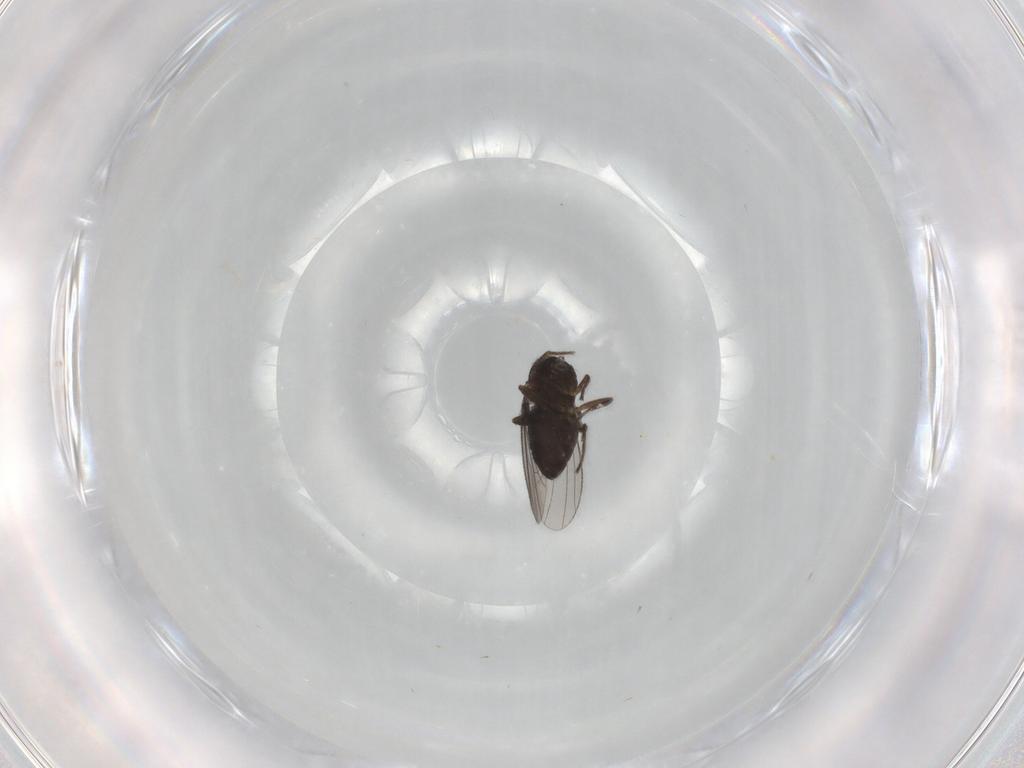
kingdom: Animalia
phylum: Arthropoda
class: Insecta
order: Diptera
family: Dolichopodidae
